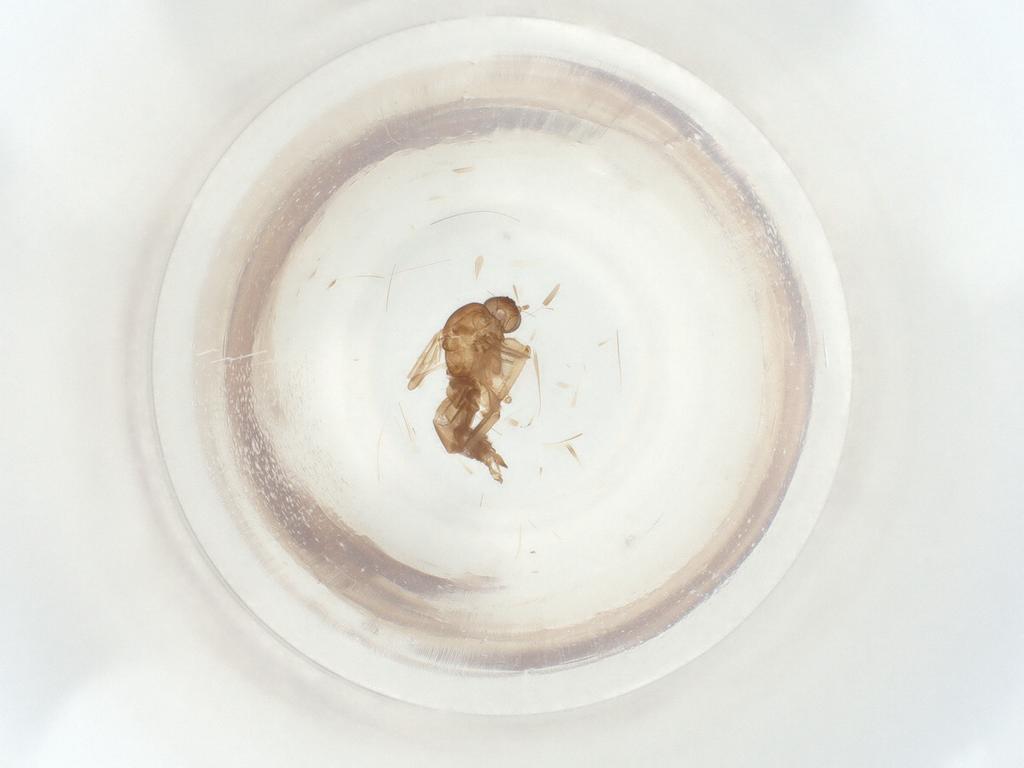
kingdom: Animalia
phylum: Arthropoda
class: Insecta
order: Diptera
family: Sciaridae
